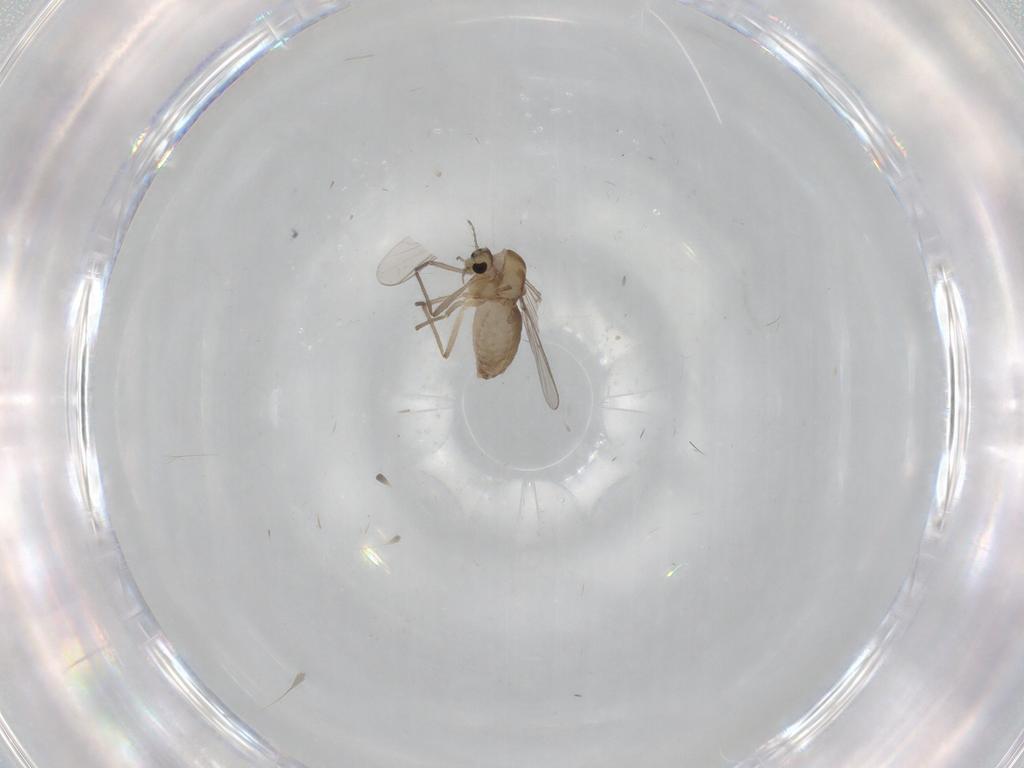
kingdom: Animalia
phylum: Arthropoda
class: Insecta
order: Diptera
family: Chironomidae
